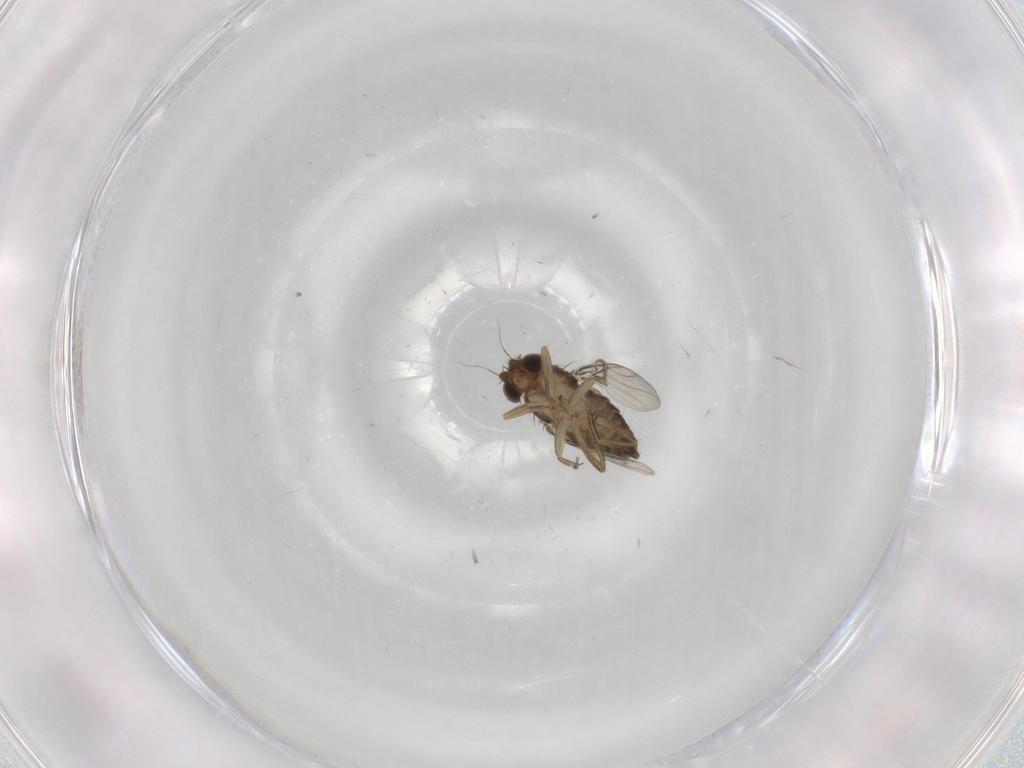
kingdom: Animalia
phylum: Arthropoda
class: Insecta
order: Diptera
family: Phoridae
